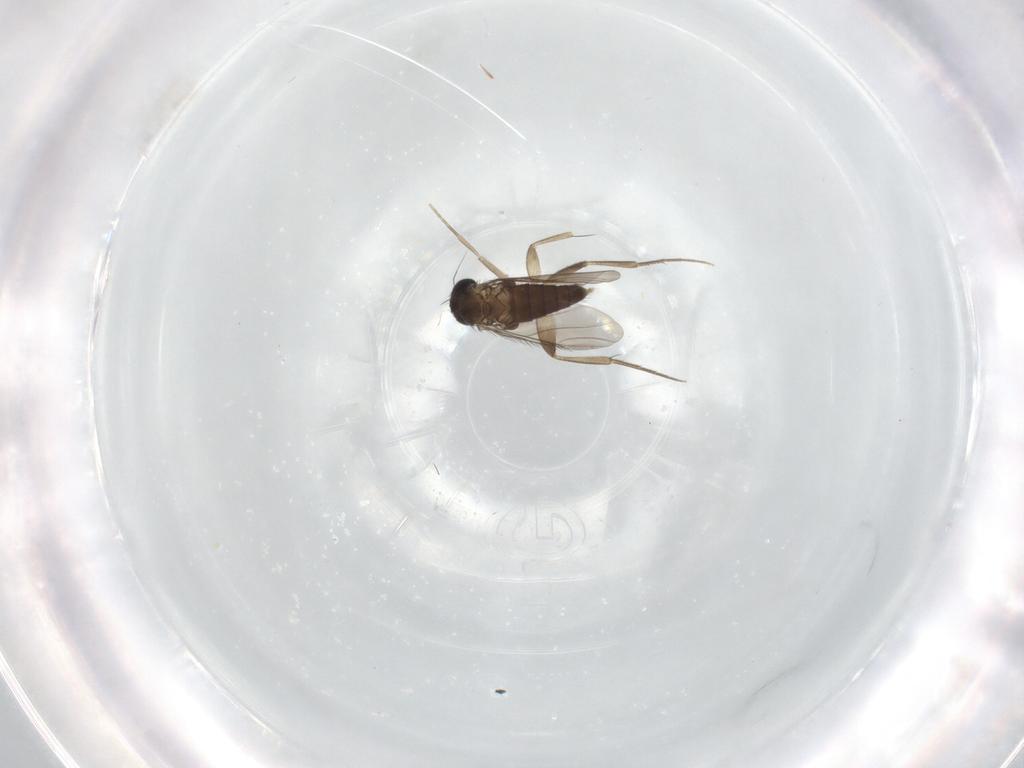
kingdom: Animalia
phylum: Arthropoda
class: Insecta
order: Diptera
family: Phoridae
